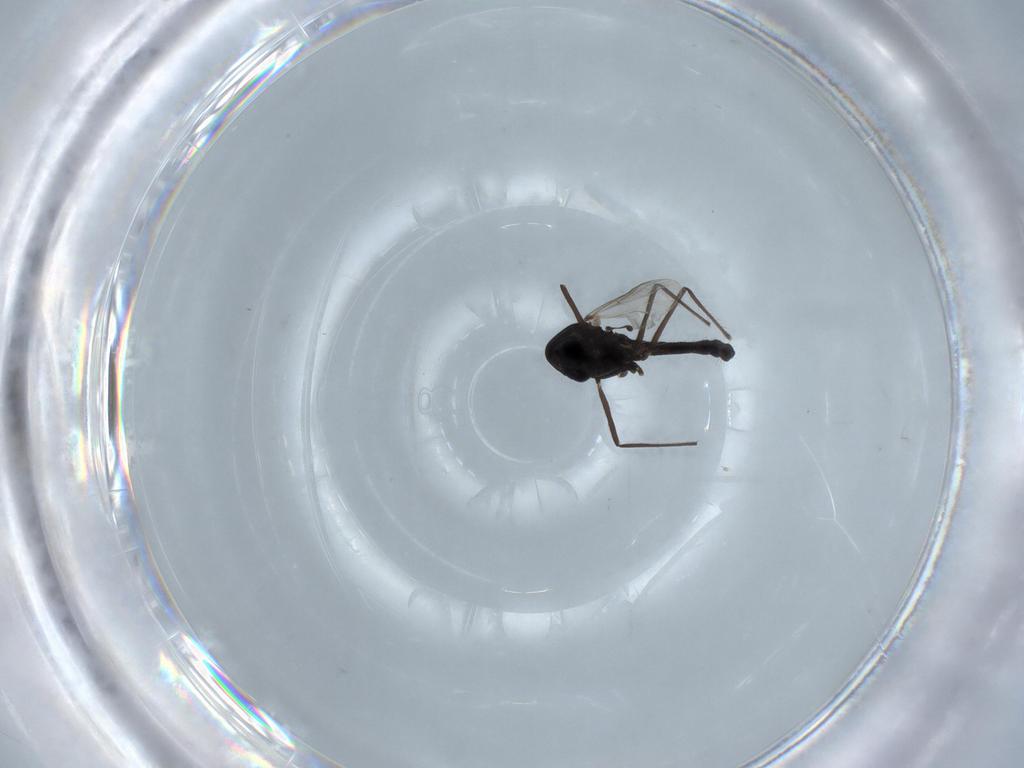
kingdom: Animalia
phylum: Arthropoda
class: Insecta
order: Diptera
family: Chironomidae
